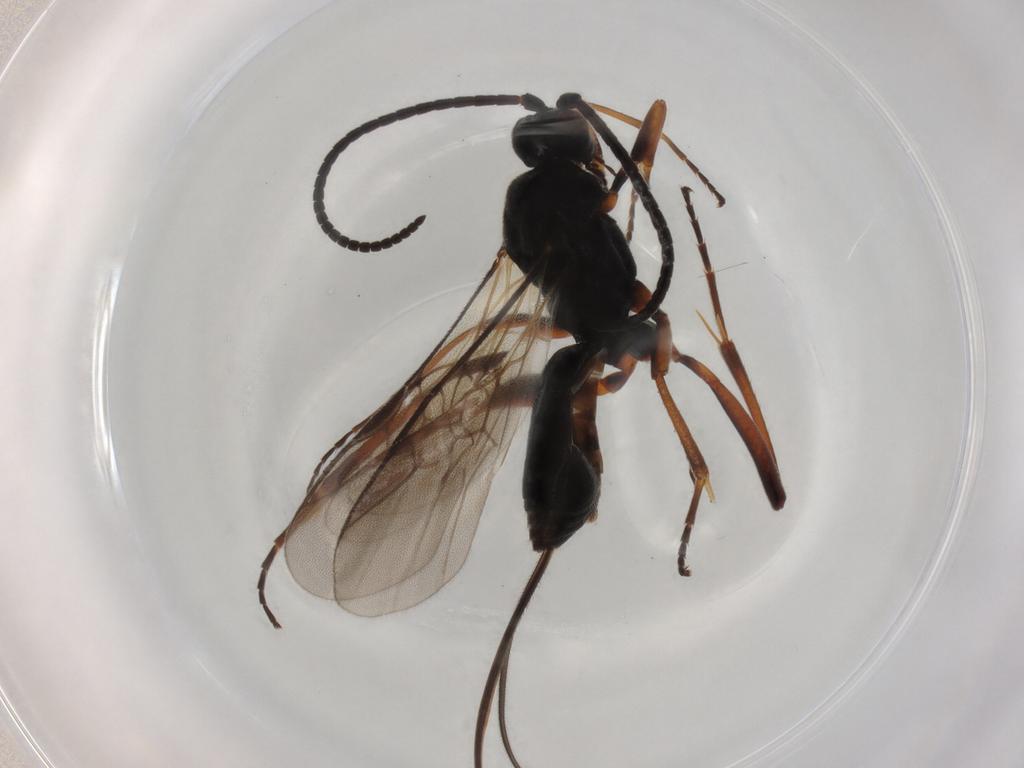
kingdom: Animalia
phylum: Arthropoda
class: Insecta
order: Hymenoptera
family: Braconidae
